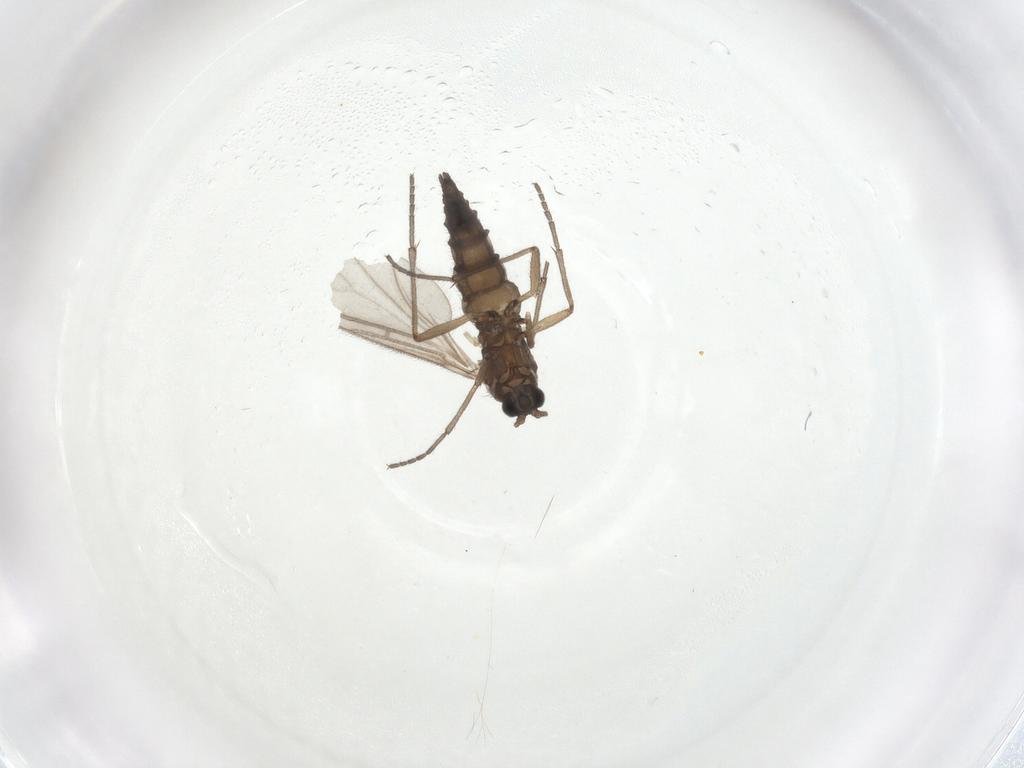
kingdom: Animalia
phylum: Arthropoda
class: Insecta
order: Diptera
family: Sciaridae
